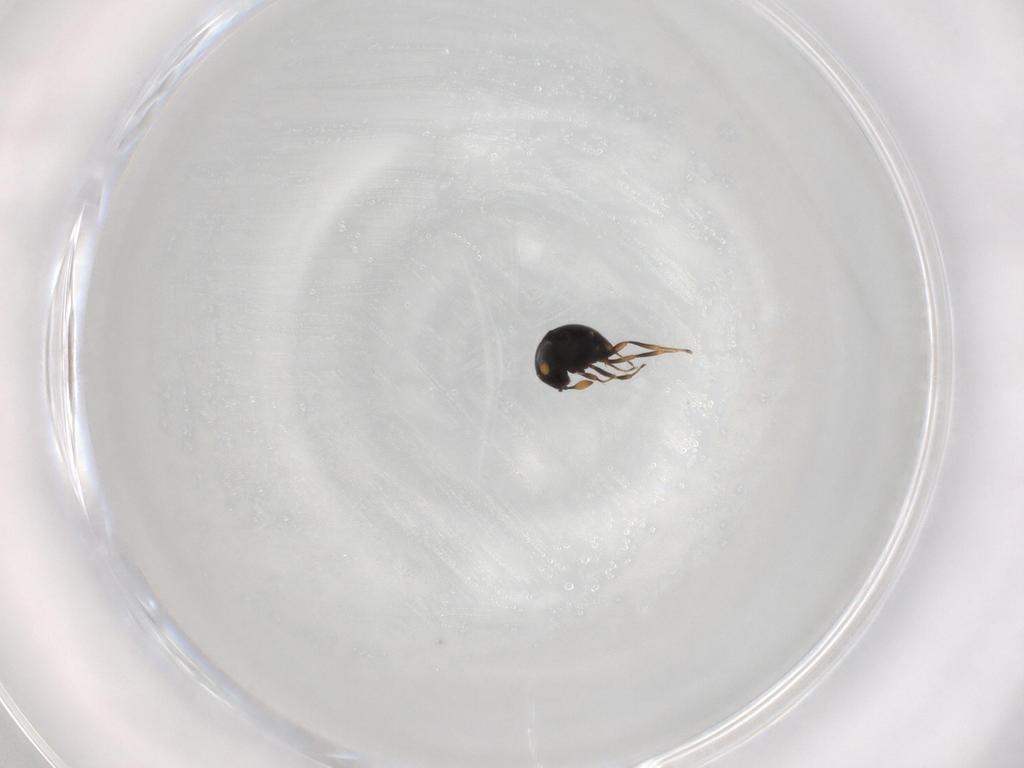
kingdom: Animalia
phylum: Arthropoda
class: Insecta
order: Hymenoptera
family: Scelionidae
